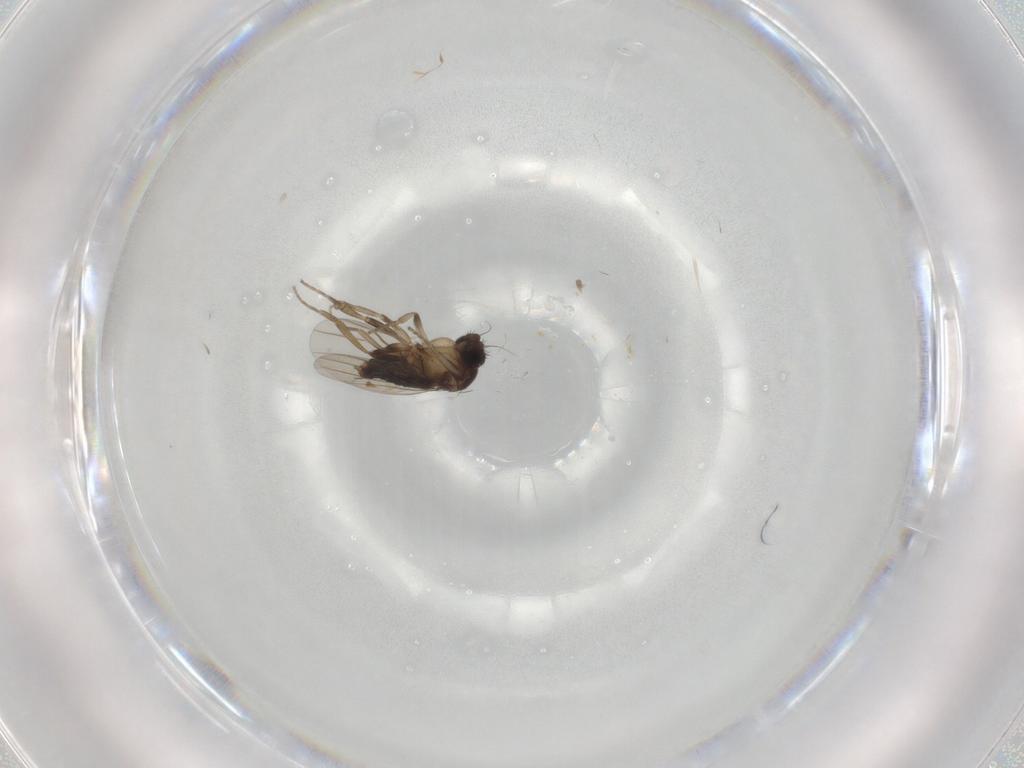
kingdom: Animalia
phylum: Arthropoda
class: Insecta
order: Diptera
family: Phoridae
